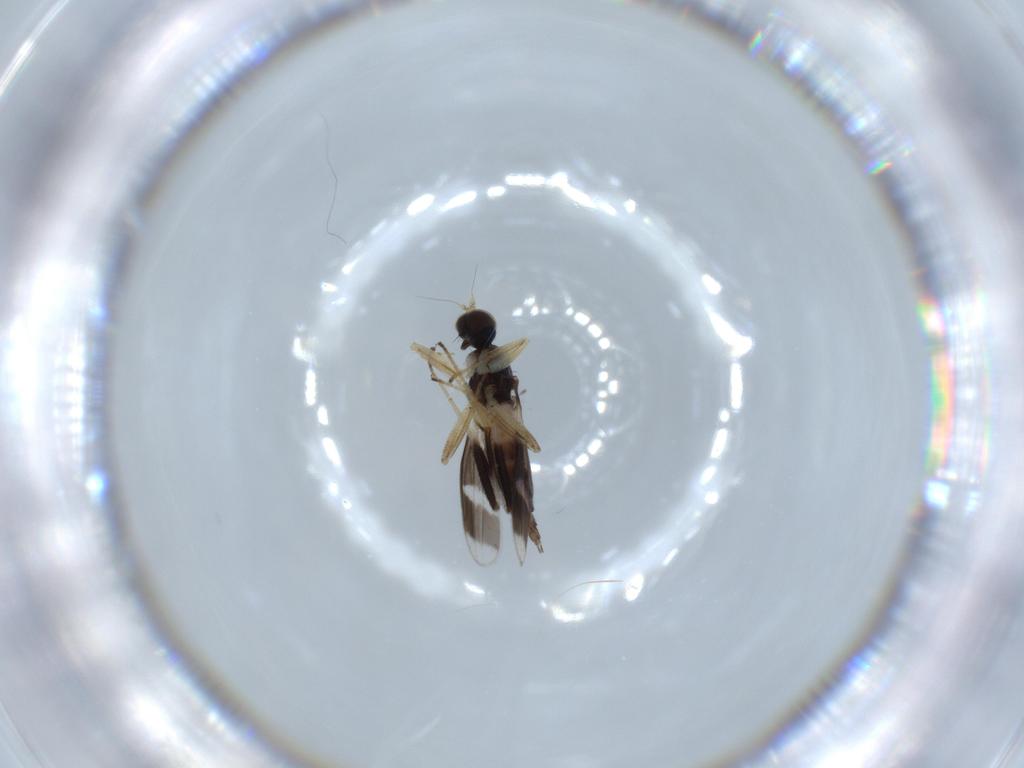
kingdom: Animalia
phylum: Arthropoda
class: Insecta
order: Diptera
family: Hybotidae
